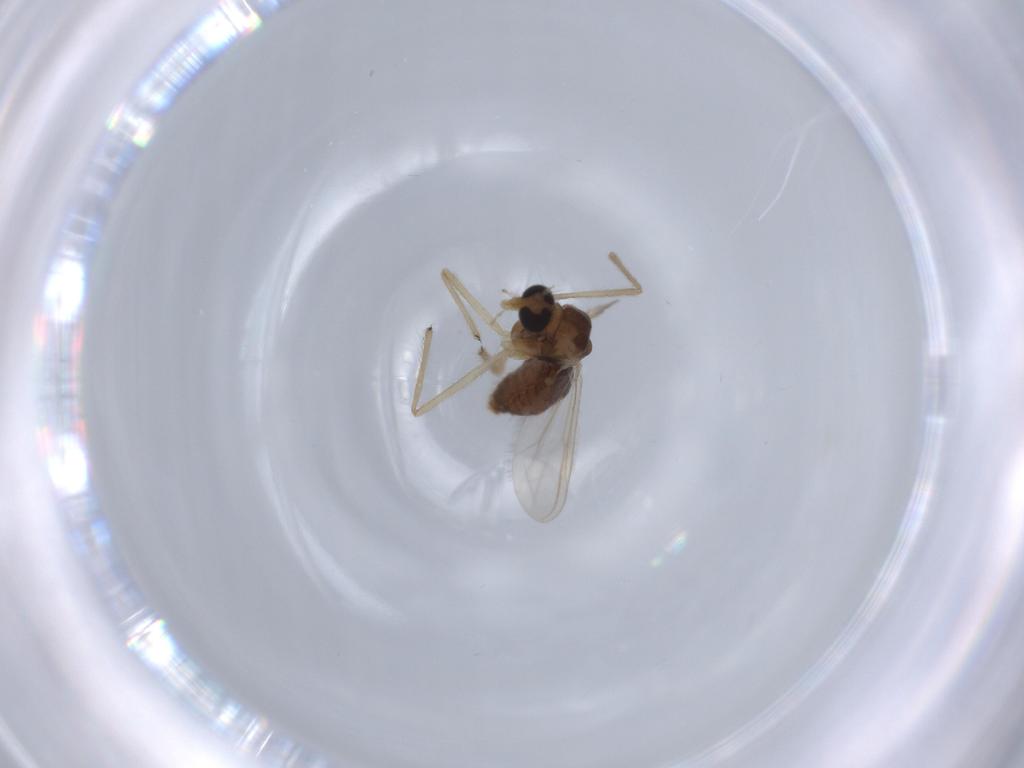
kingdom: Animalia
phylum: Arthropoda
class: Insecta
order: Diptera
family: Chironomidae
